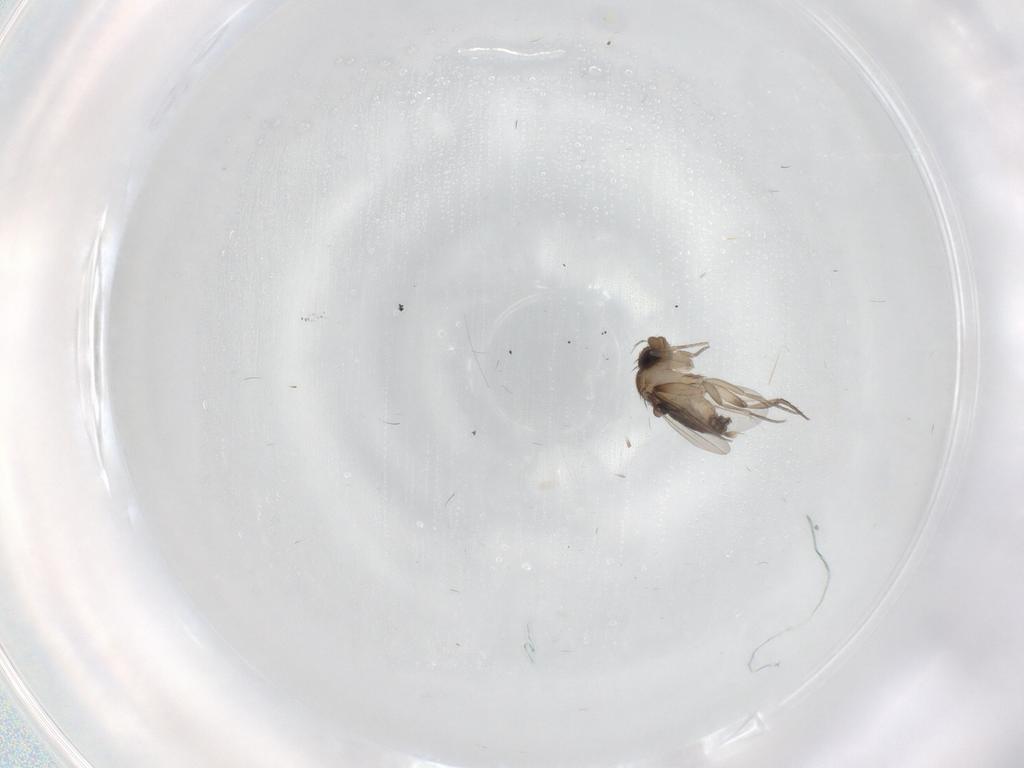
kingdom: Animalia
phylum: Arthropoda
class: Insecta
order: Diptera
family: Phoridae
